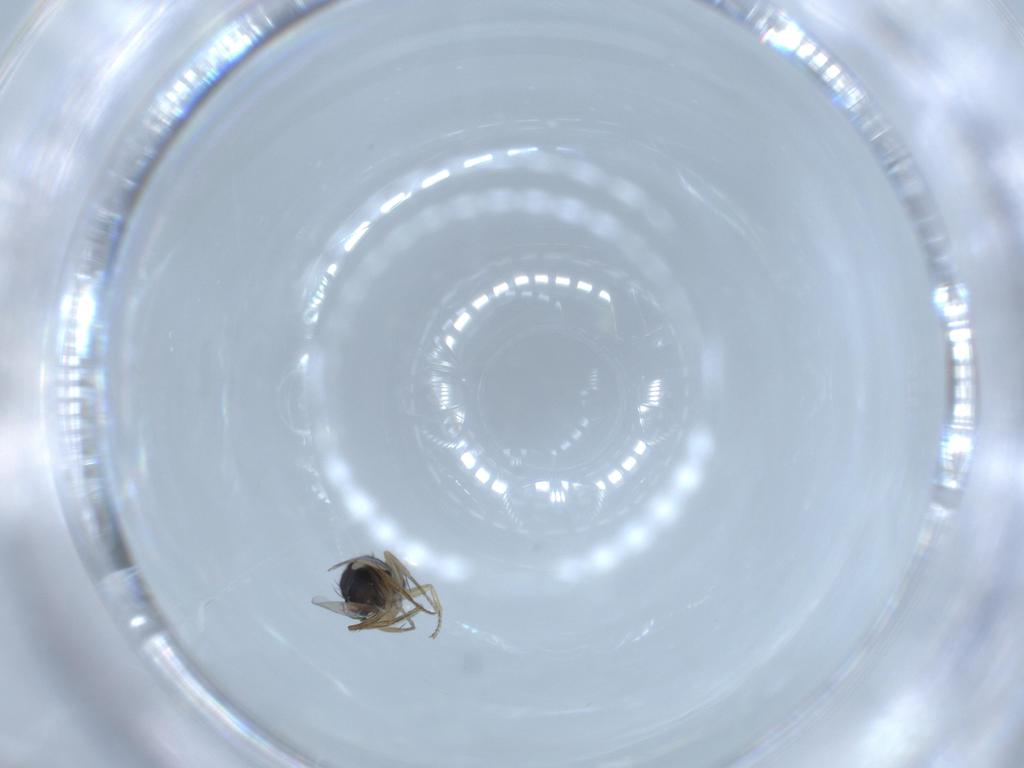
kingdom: Animalia
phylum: Arthropoda
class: Insecta
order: Diptera
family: Phoridae
